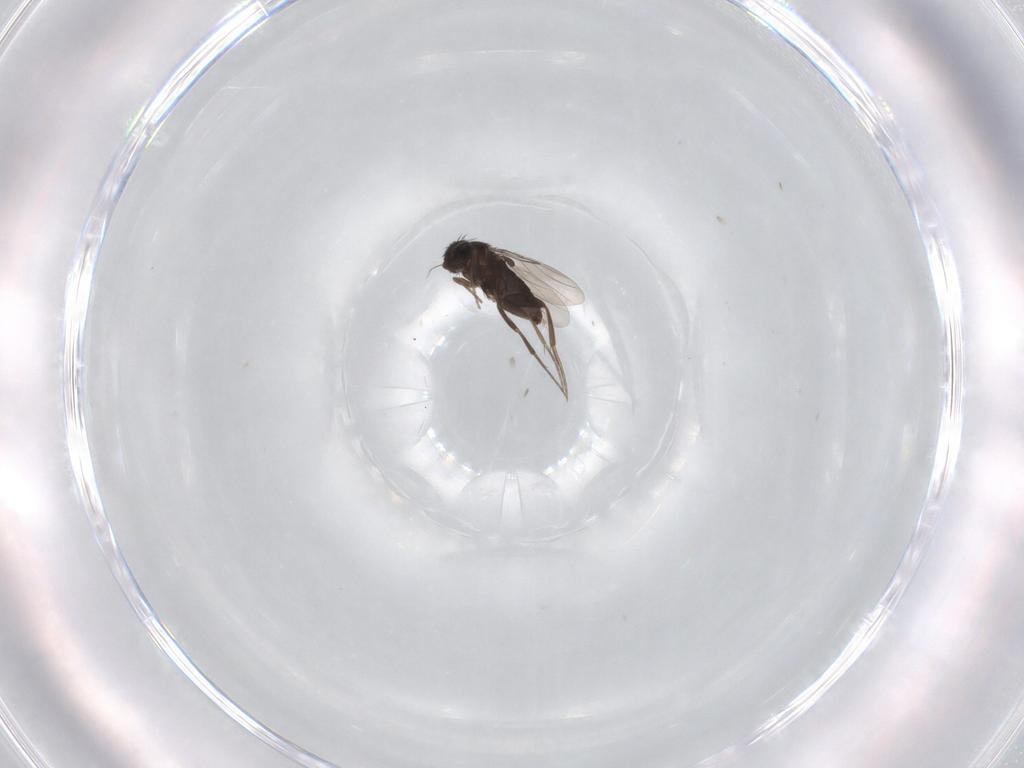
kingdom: Animalia
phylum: Arthropoda
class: Insecta
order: Diptera
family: Phoridae
